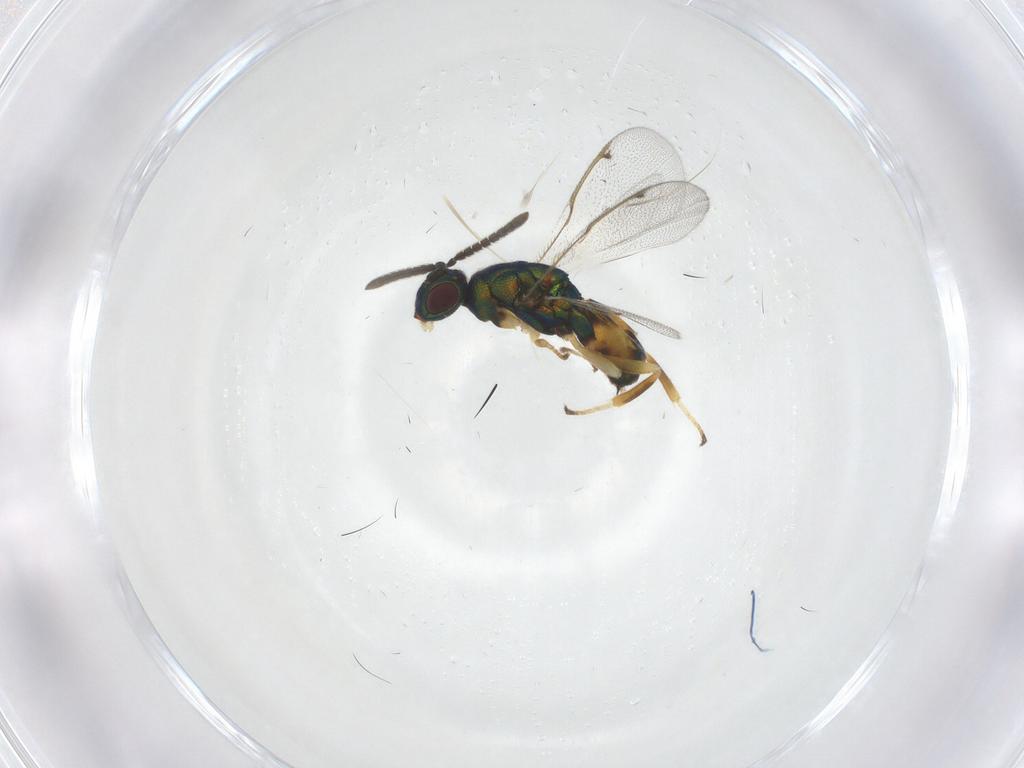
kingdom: Animalia
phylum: Arthropoda
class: Insecta
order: Hymenoptera
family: Torymidae
